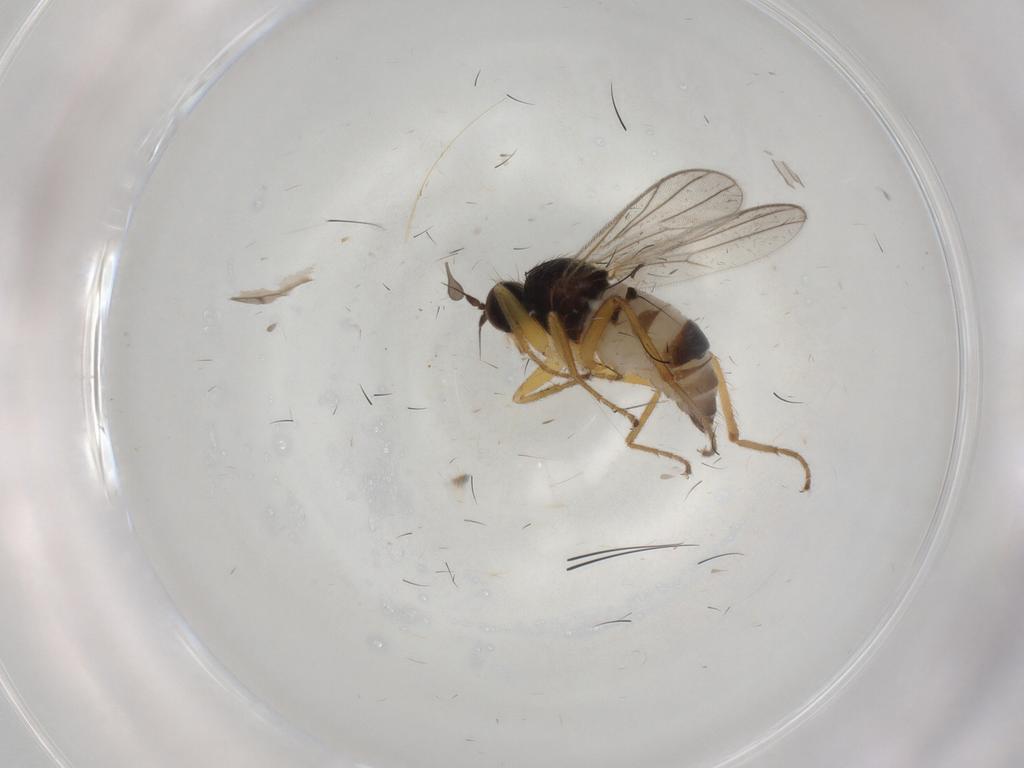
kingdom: Animalia
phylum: Arthropoda
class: Insecta
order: Diptera
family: Hybotidae
